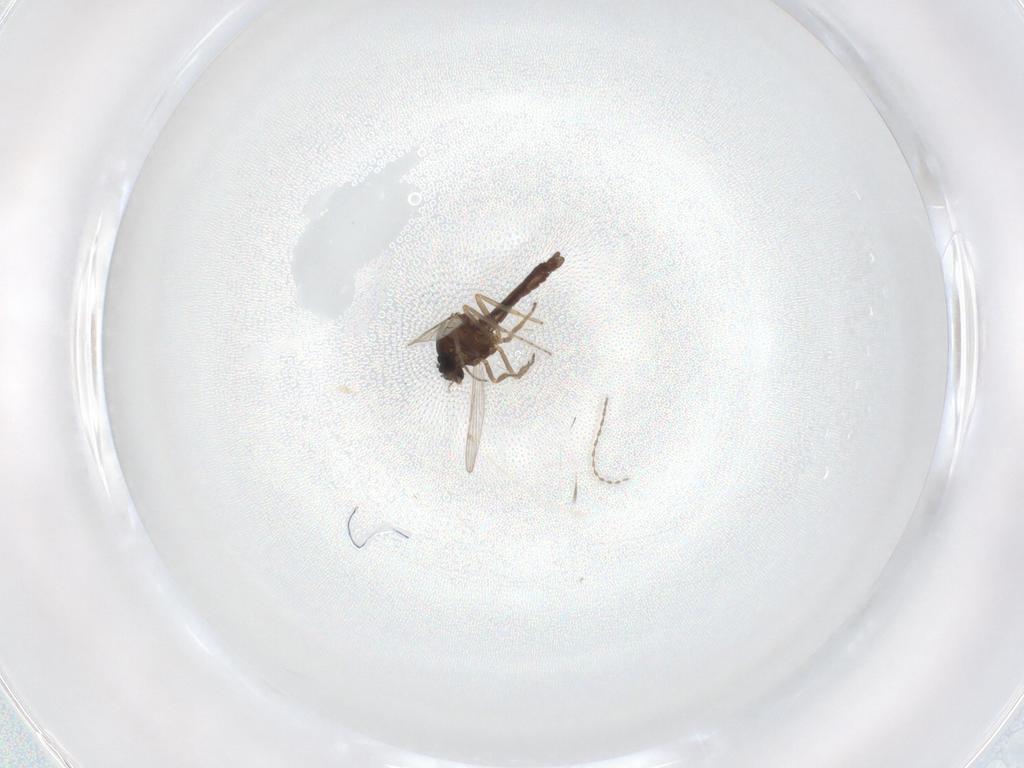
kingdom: Animalia
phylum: Arthropoda
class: Insecta
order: Diptera
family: Ceratopogonidae
